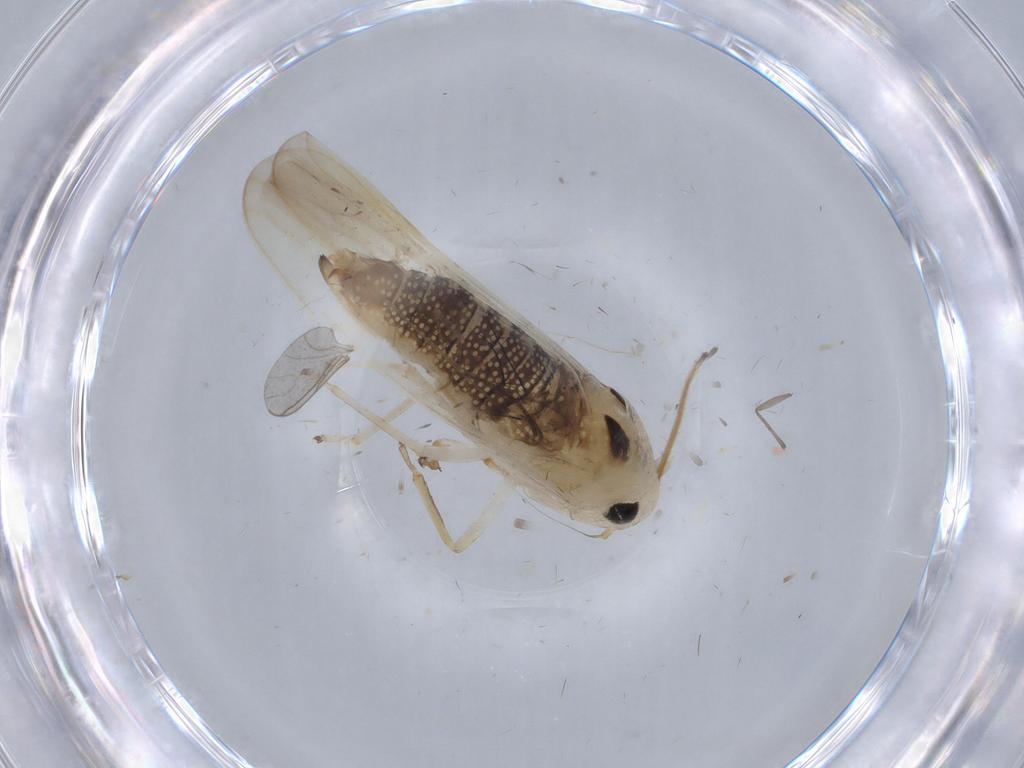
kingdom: Animalia
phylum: Arthropoda
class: Insecta
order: Hemiptera
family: Cicadellidae
